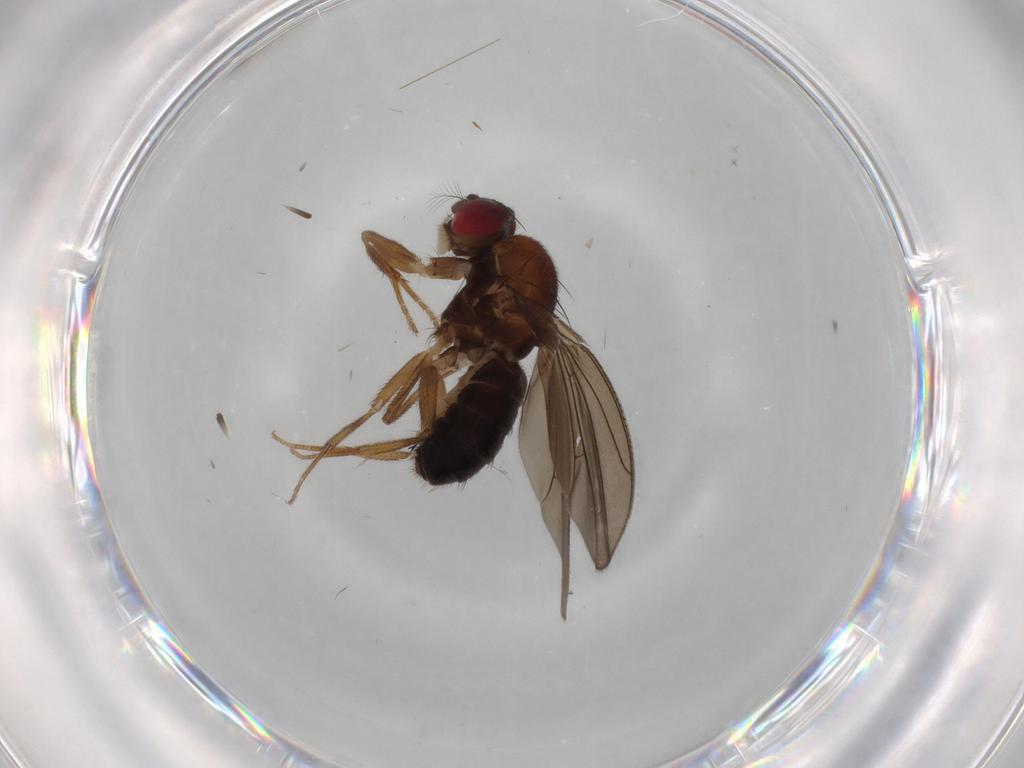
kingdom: Animalia
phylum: Arthropoda
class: Insecta
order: Diptera
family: Drosophilidae
